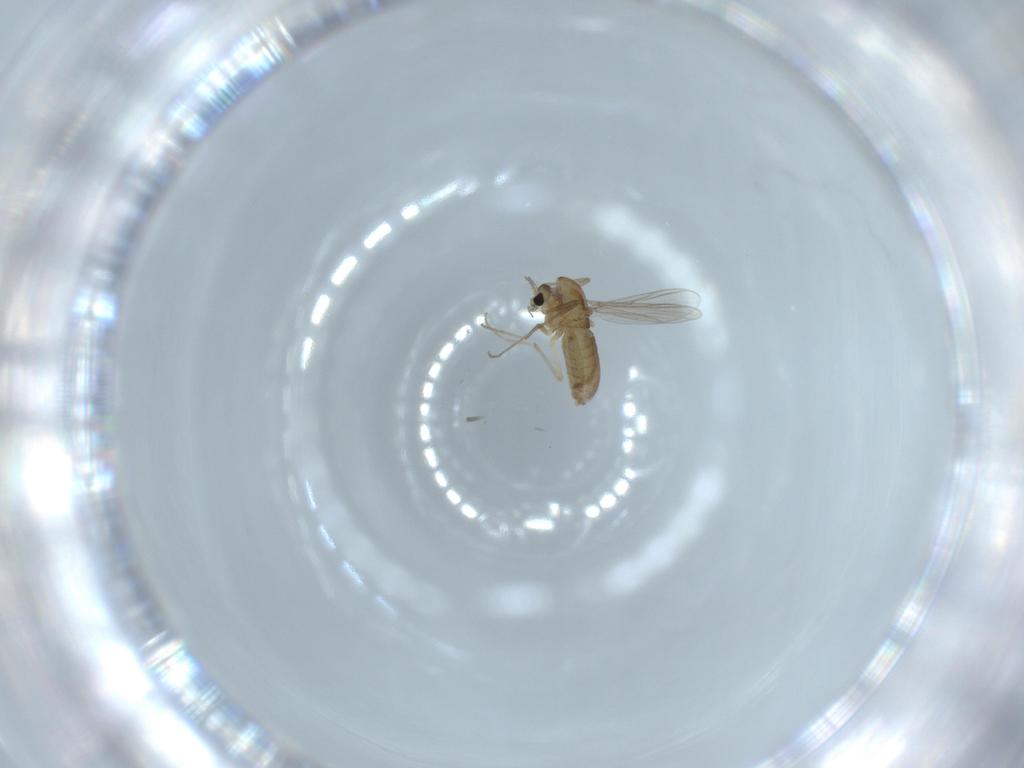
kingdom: Animalia
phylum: Arthropoda
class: Insecta
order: Diptera
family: Chironomidae
